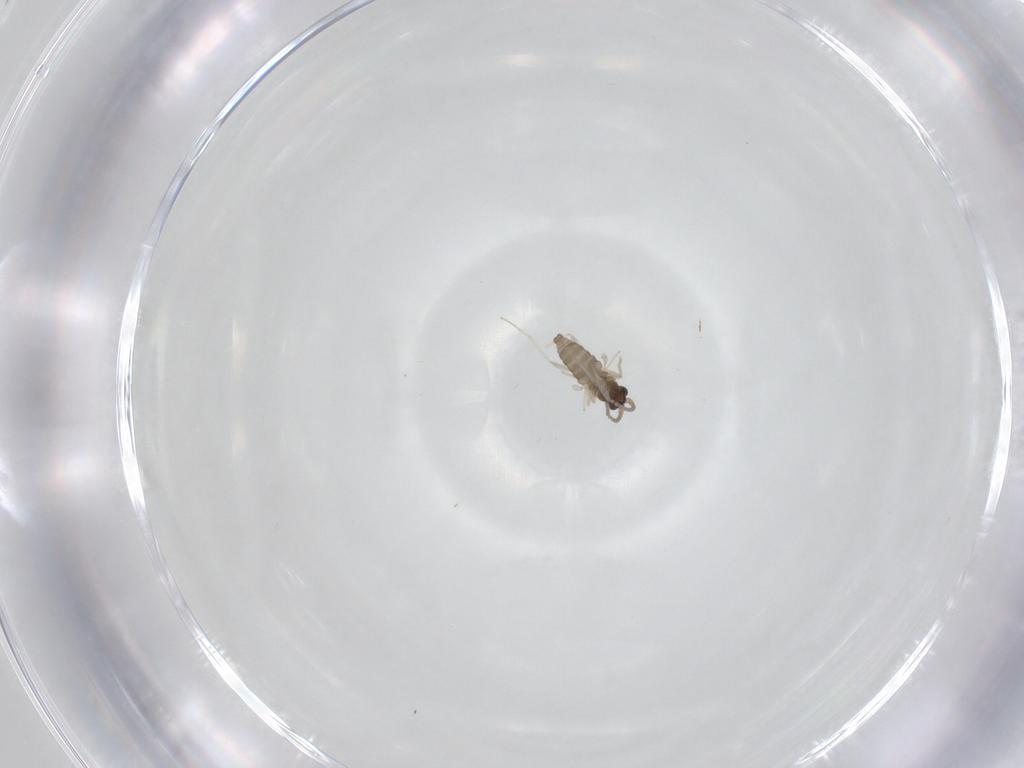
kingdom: Animalia
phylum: Arthropoda
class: Insecta
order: Diptera
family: Cecidomyiidae
